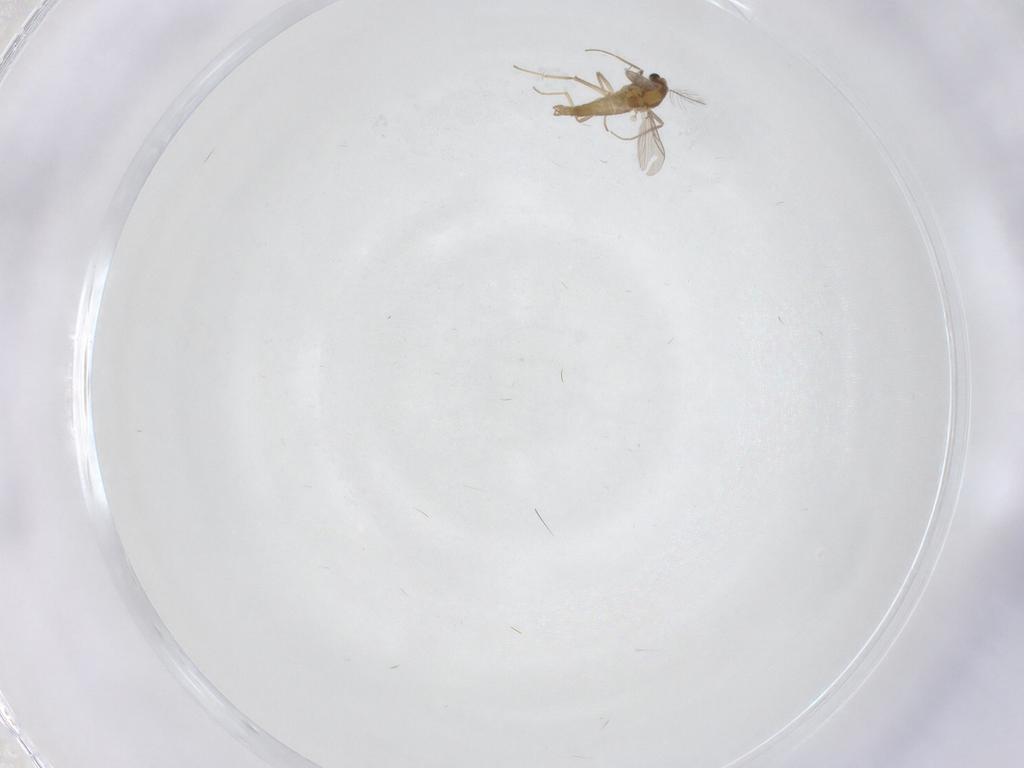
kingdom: Animalia
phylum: Arthropoda
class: Insecta
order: Diptera
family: Chironomidae
